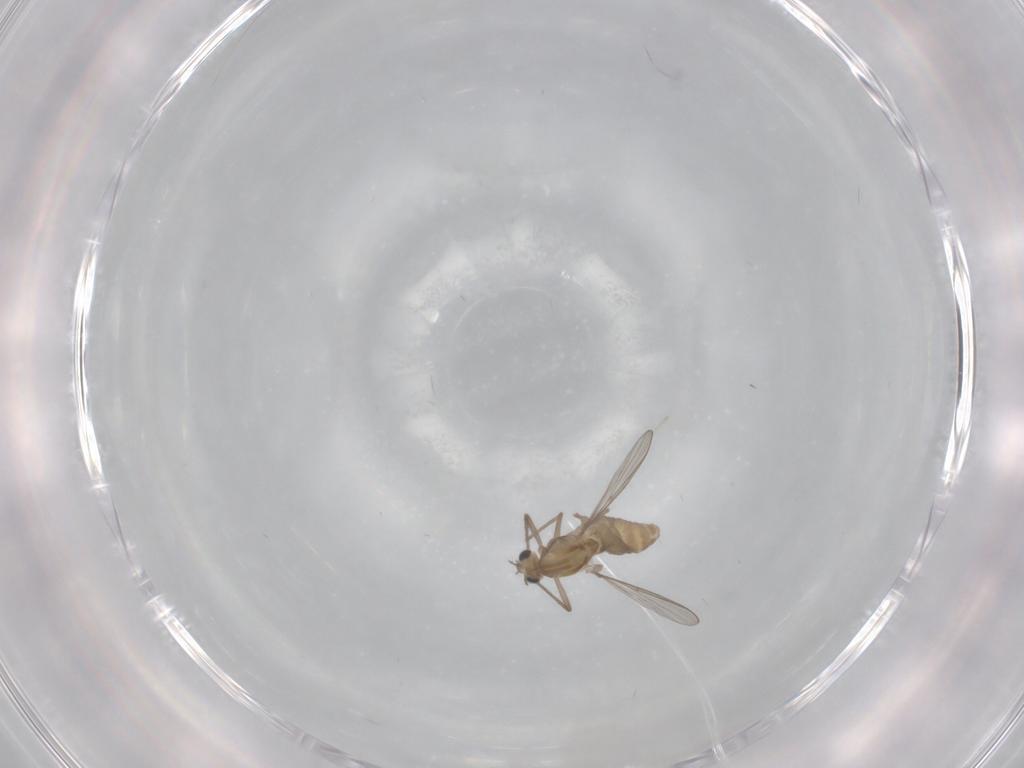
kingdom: Animalia
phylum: Arthropoda
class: Insecta
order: Diptera
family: Chironomidae
